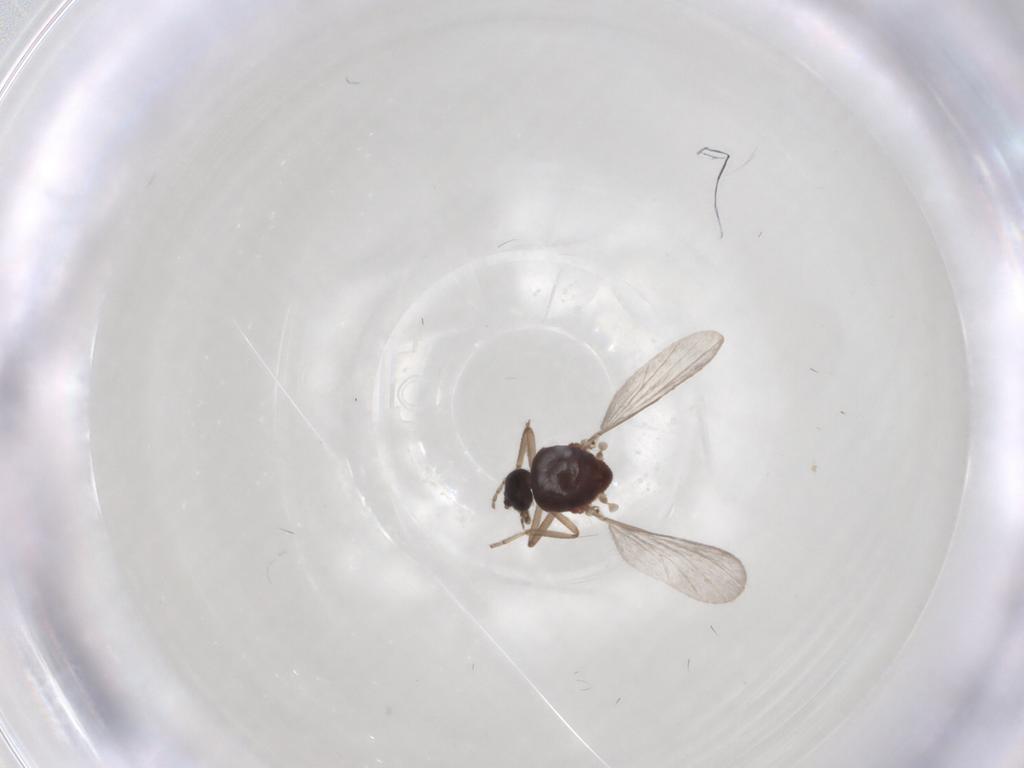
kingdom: Animalia
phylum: Arthropoda
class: Insecta
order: Diptera
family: Ceratopogonidae
